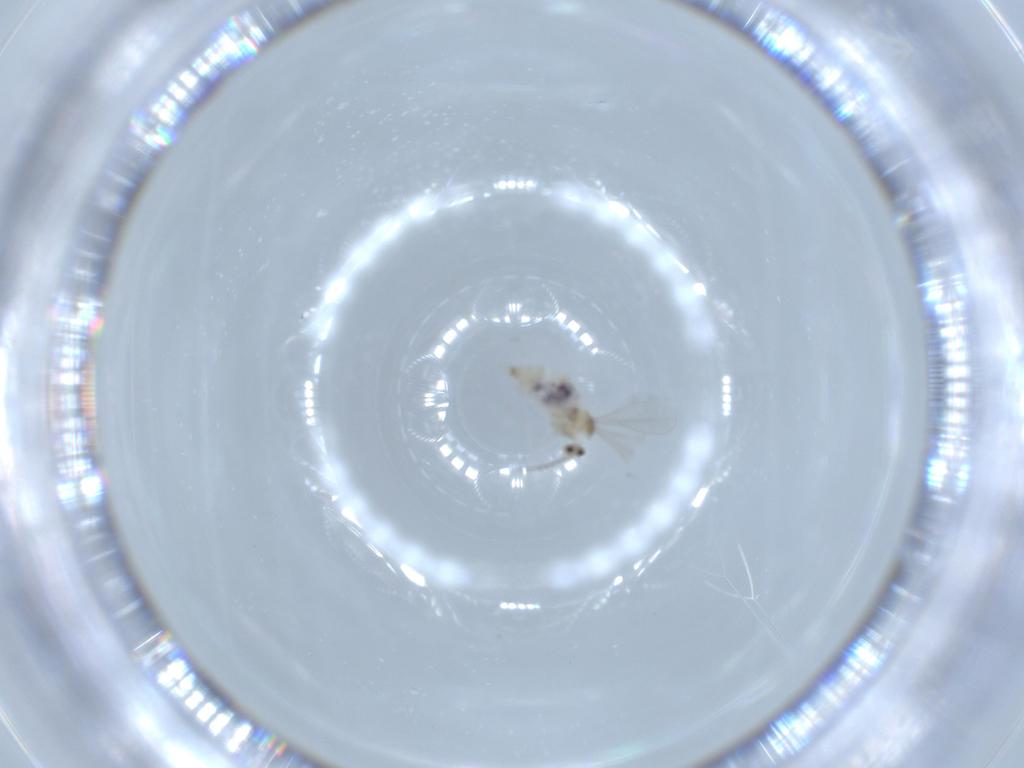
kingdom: Animalia
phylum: Arthropoda
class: Insecta
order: Diptera
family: Cecidomyiidae
